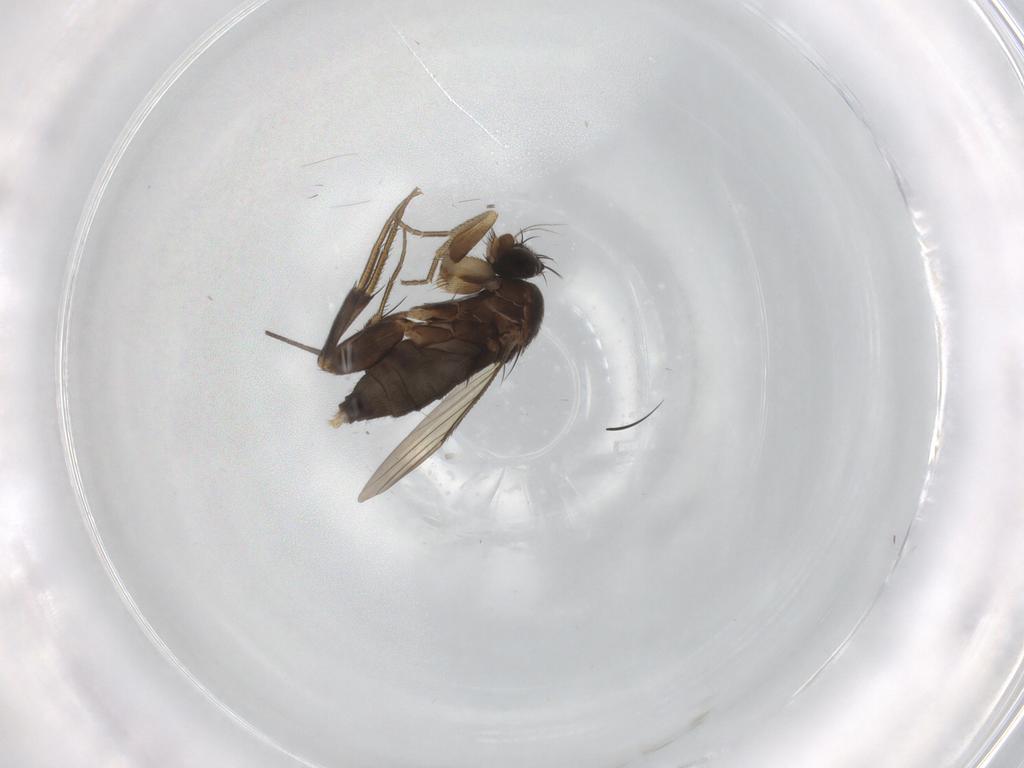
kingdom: Animalia
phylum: Arthropoda
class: Insecta
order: Diptera
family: Phoridae
